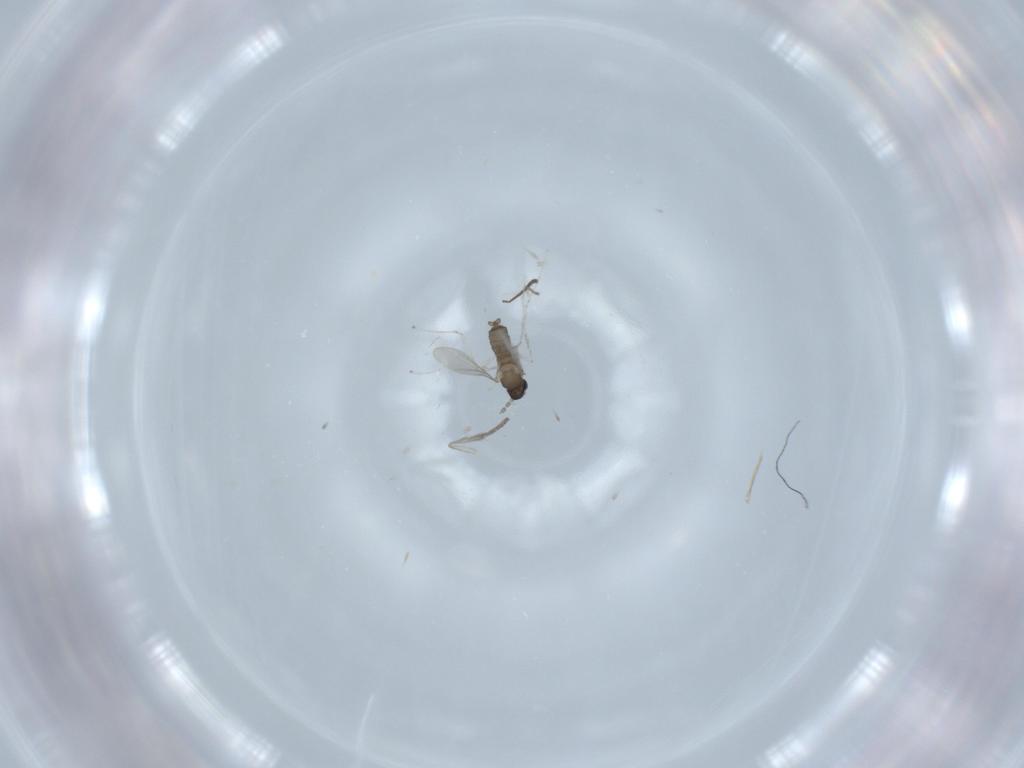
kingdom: Animalia
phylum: Arthropoda
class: Insecta
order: Diptera
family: Cecidomyiidae
